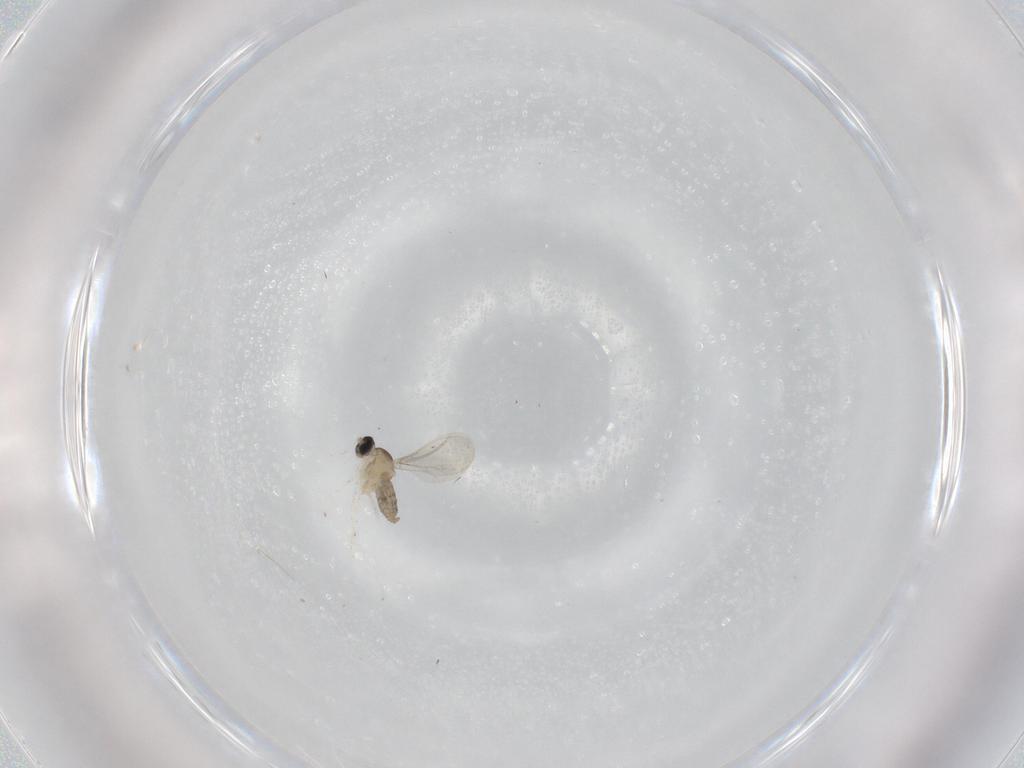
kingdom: Animalia
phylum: Arthropoda
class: Insecta
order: Diptera
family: Cecidomyiidae
